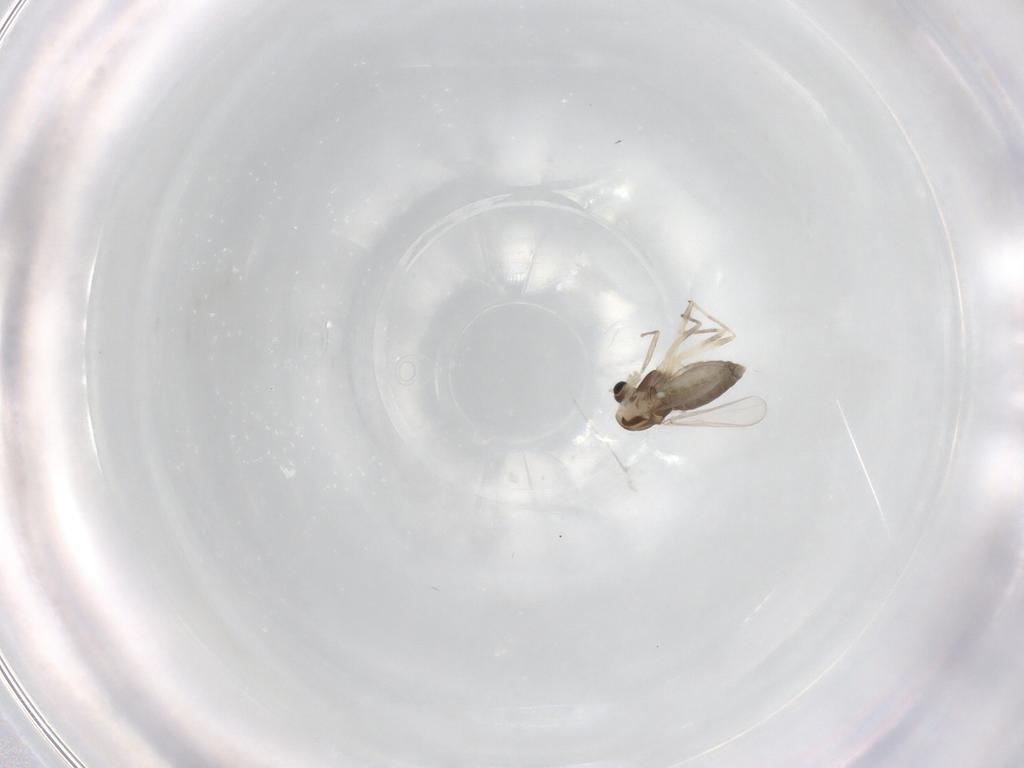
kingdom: Animalia
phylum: Arthropoda
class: Insecta
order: Diptera
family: Chironomidae
